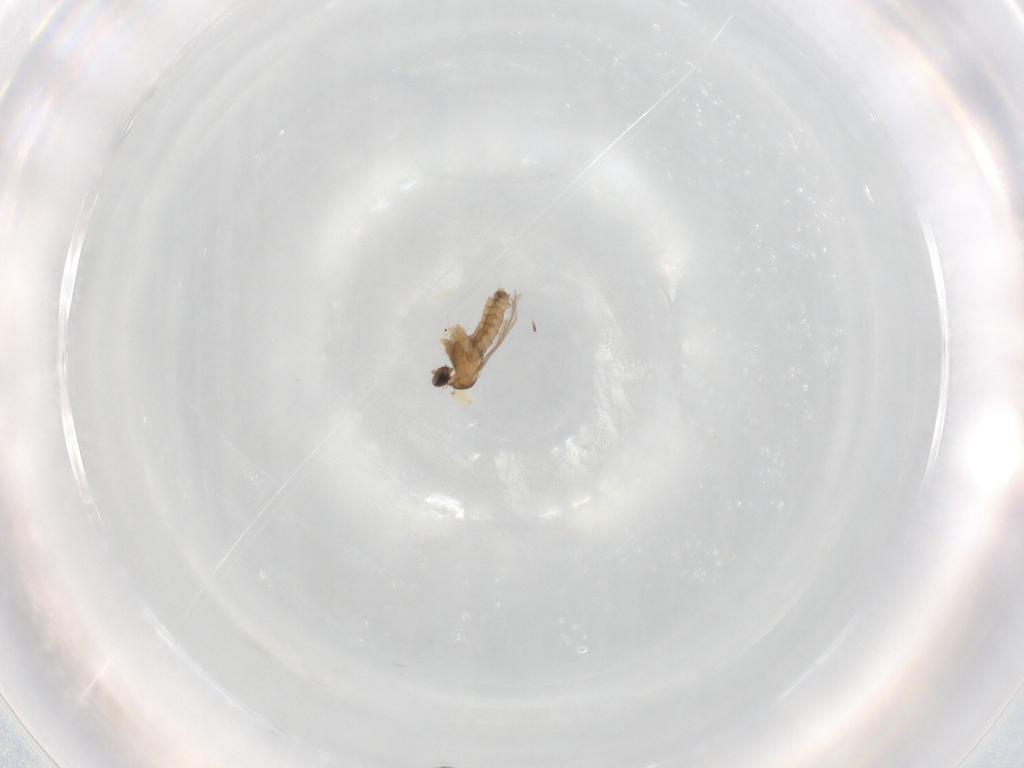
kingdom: Animalia
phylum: Arthropoda
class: Insecta
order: Diptera
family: Glossinidae
